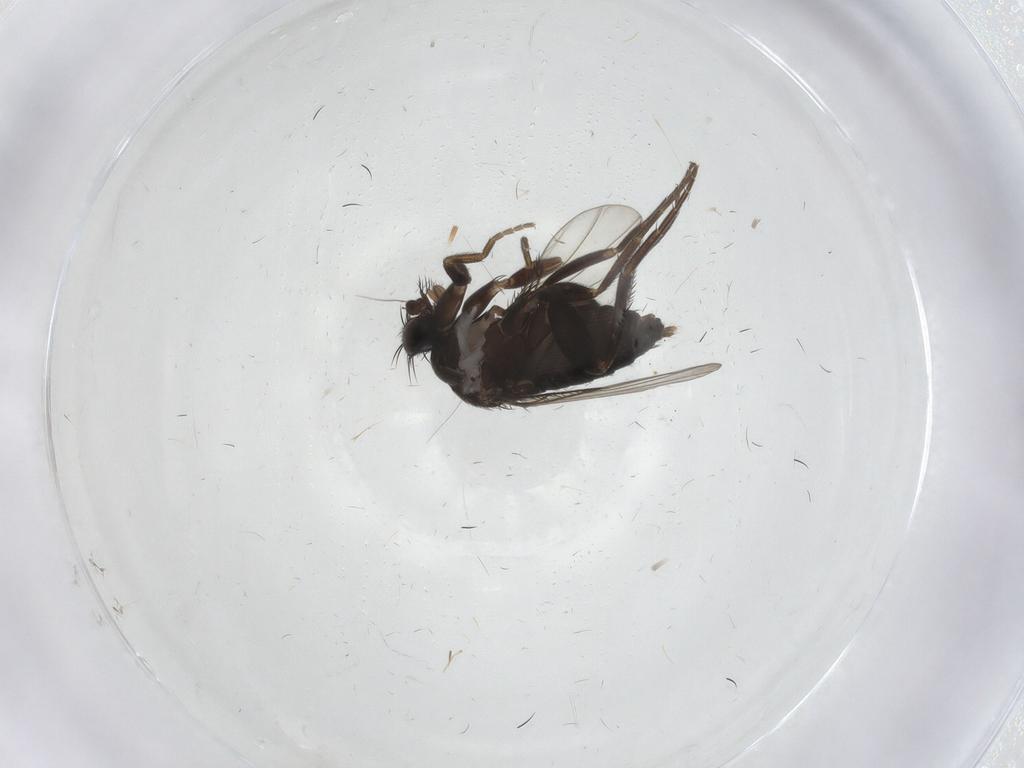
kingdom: Animalia
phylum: Arthropoda
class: Insecta
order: Diptera
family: Phoridae
